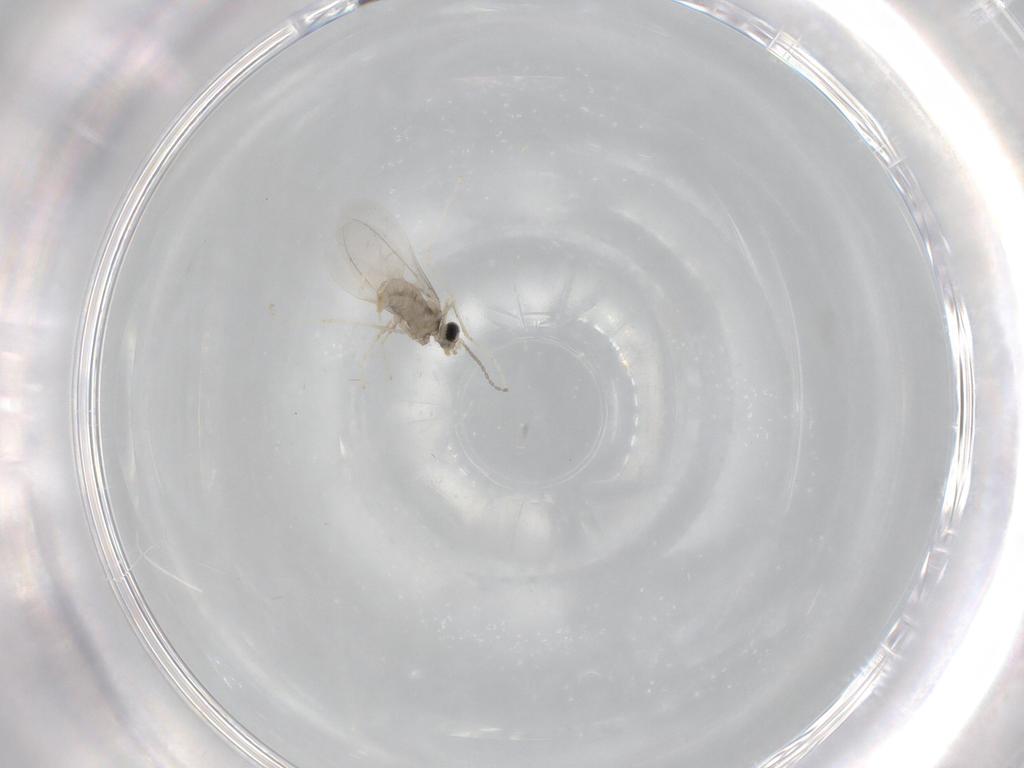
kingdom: Animalia
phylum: Arthropoda
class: Insecta
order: Diptera
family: Cecidomyiidae
